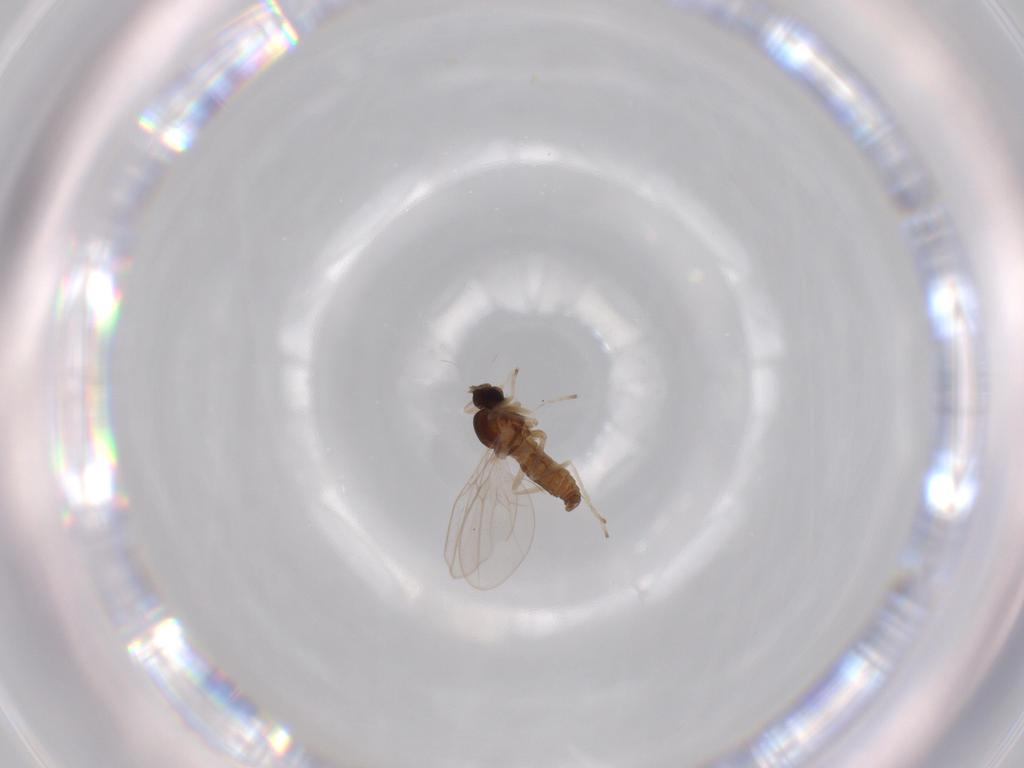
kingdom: Animalia
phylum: Arthropoda
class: Insecta
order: Diptera
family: Cecidomyiidae
